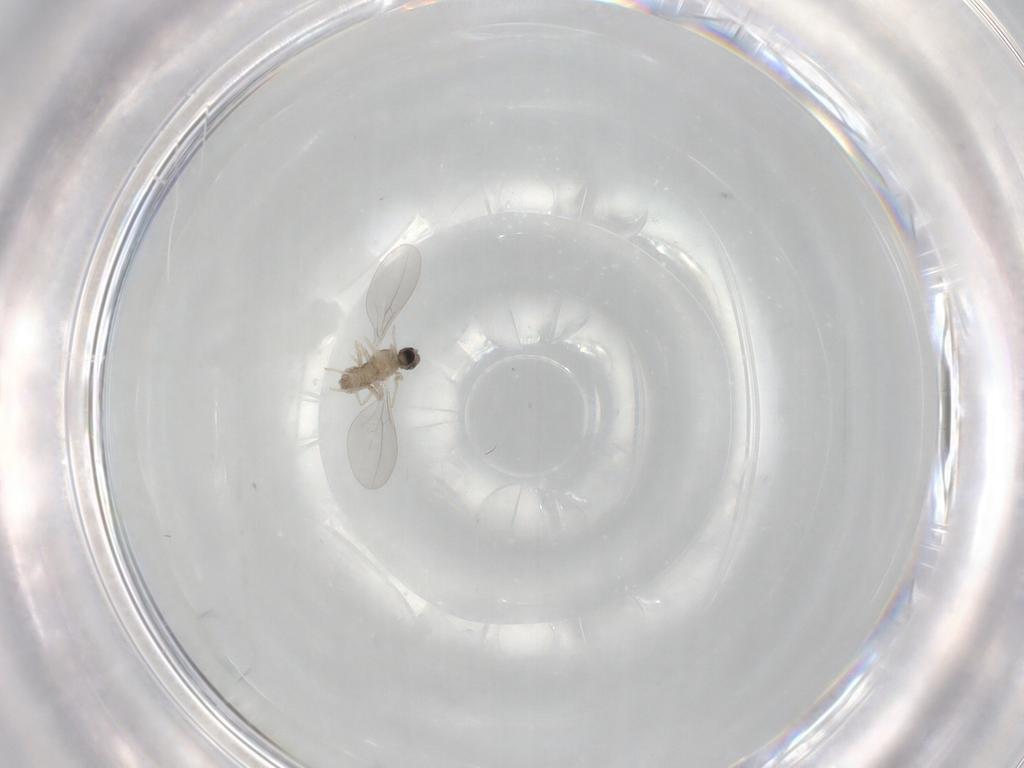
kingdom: Animalia
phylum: Arthropoda
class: Insecta
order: Diptera
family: Cecidomyiidae
